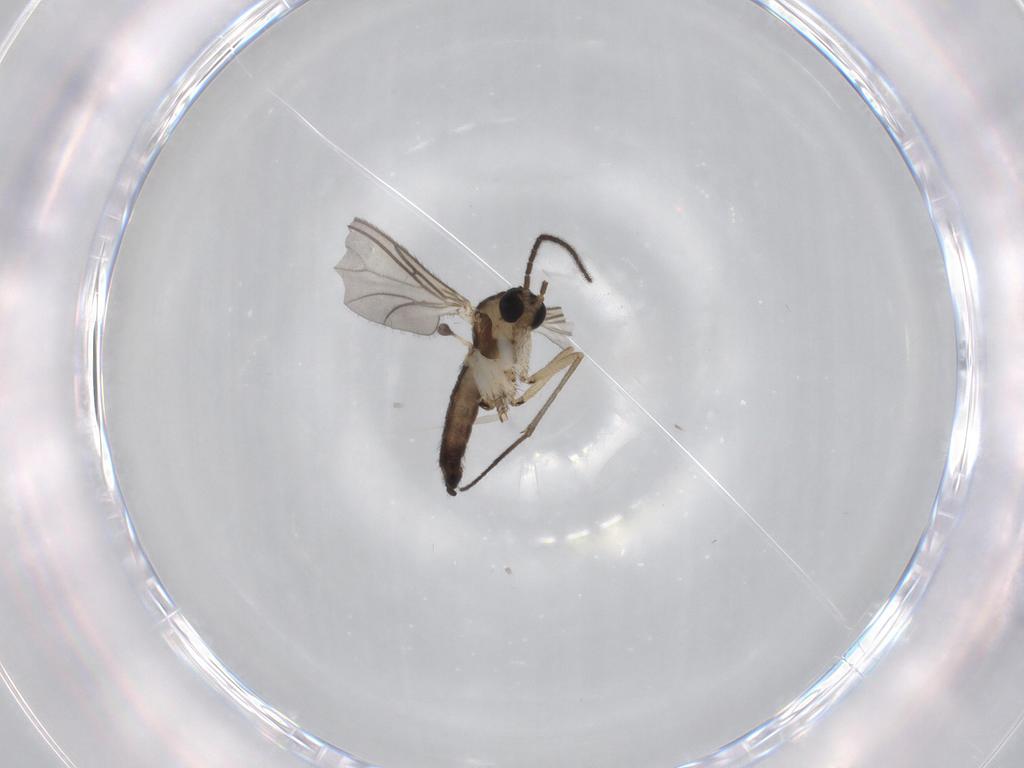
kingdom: Animalia
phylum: Arthropoda
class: Insecta
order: Diptera
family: Sciaridae
